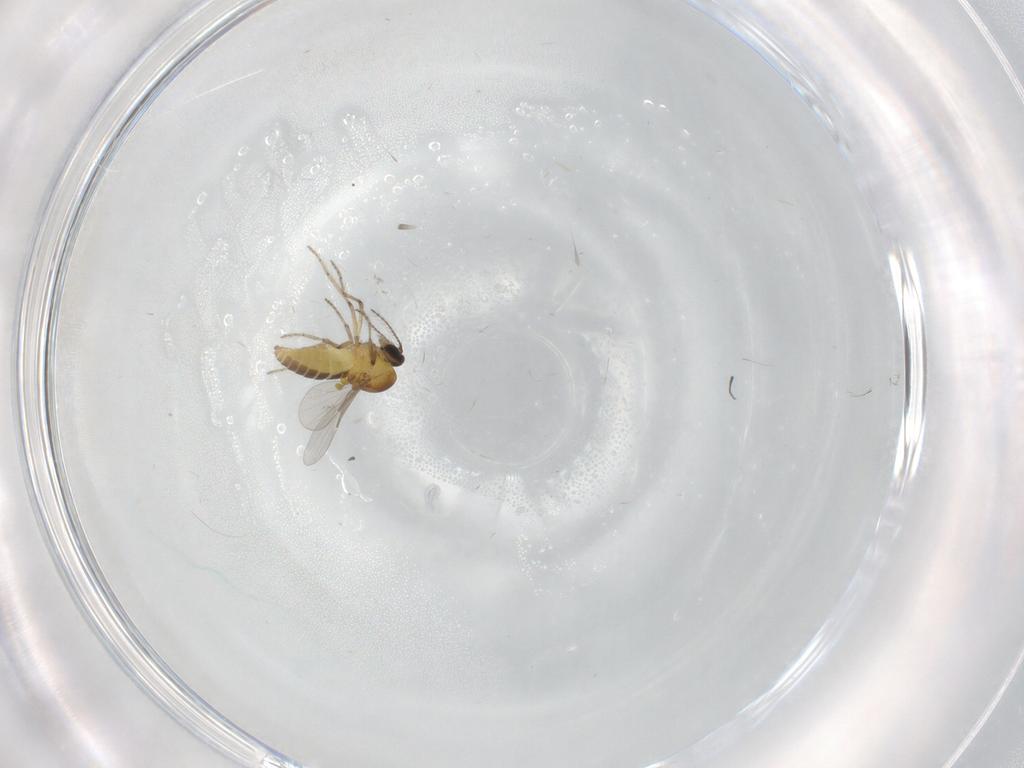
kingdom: Animalia
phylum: Arthropoda
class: Insecta
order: Diptera
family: Ceratopogonidae
